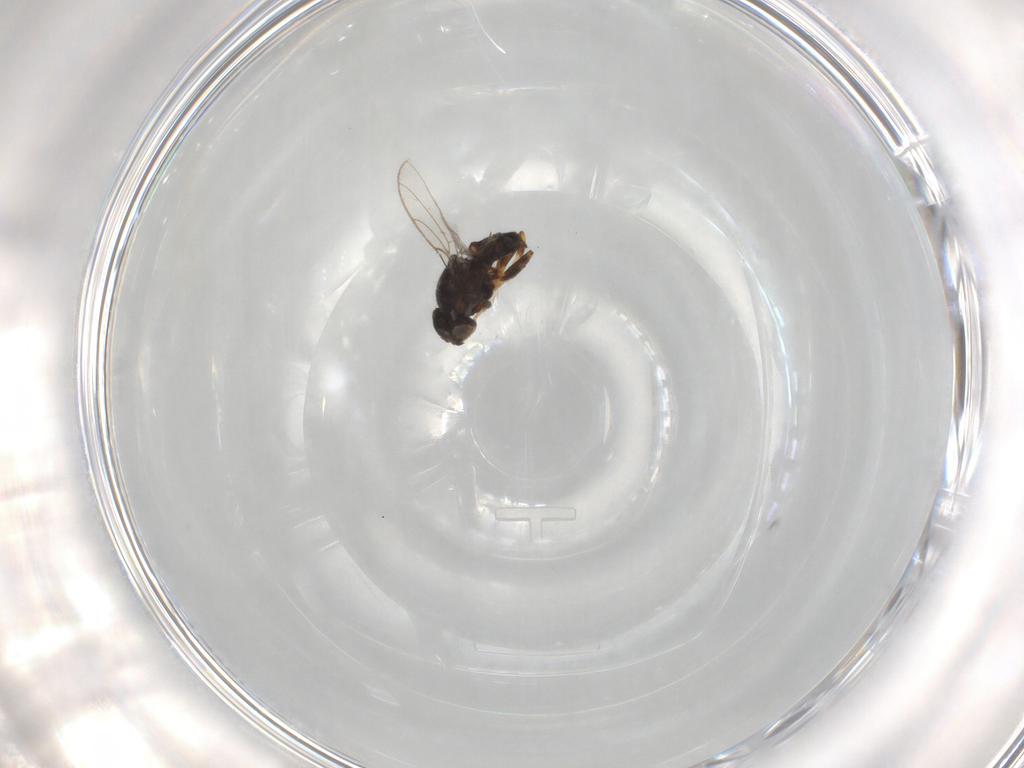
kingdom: Animalia
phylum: Arthropoda
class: Insecta
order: Diptera
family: Chloropidae
